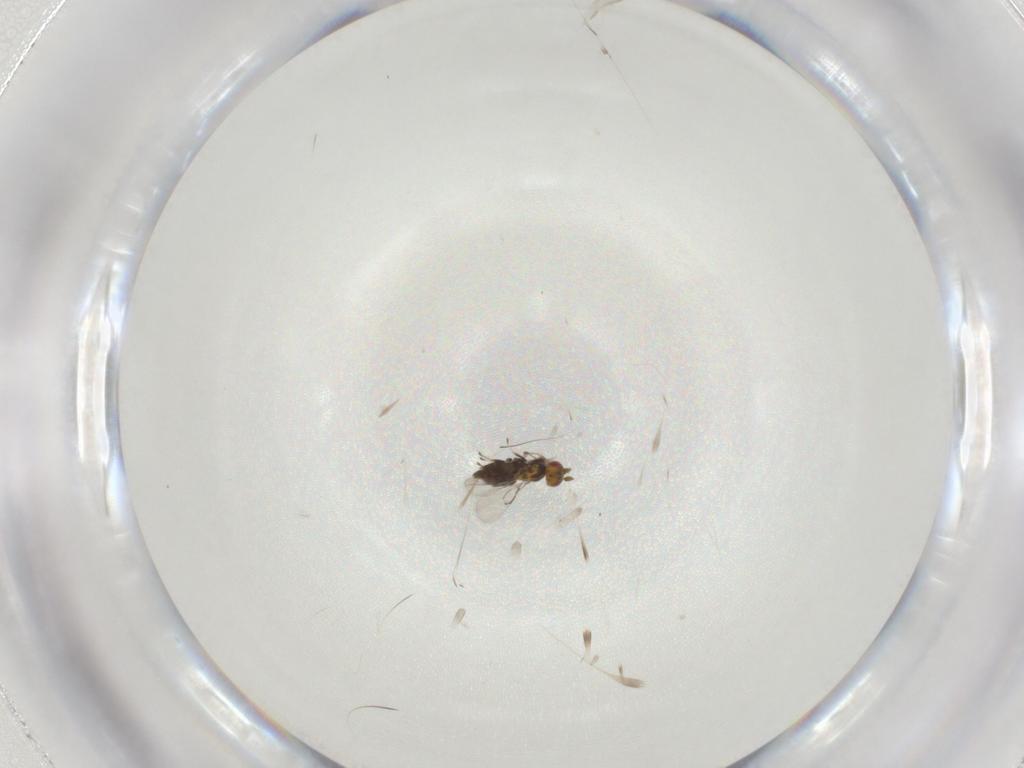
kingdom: Animalia
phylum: Arthropoda
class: Insecta
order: Hymenoptera
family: Trichogrammatidae
